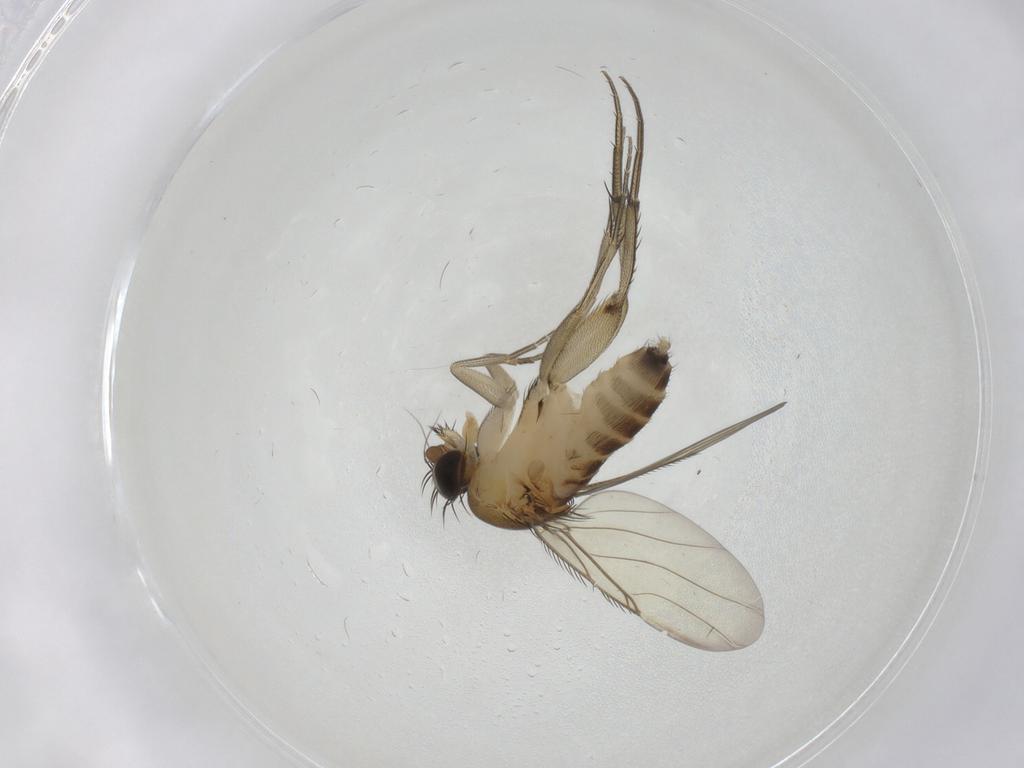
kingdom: Animalia
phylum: Arthropoda
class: Insecta
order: Diptera
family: Phoridae
